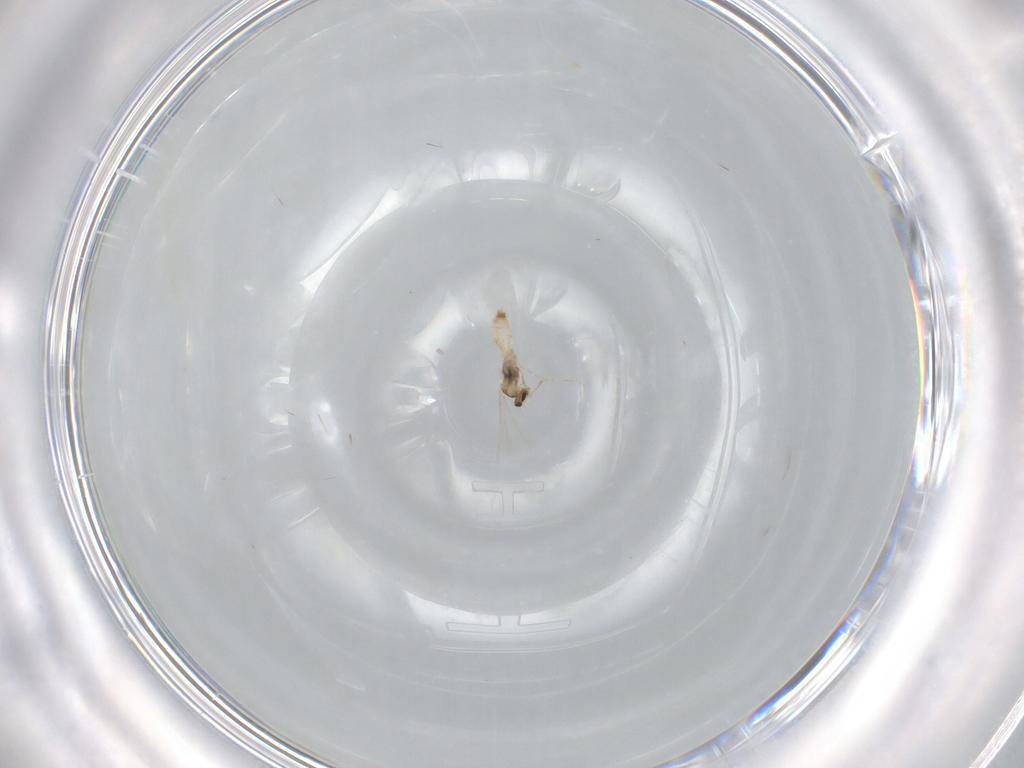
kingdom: Animalia
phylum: Arthropoda
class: Insecta
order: Diptera
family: Cecidomyiidae
